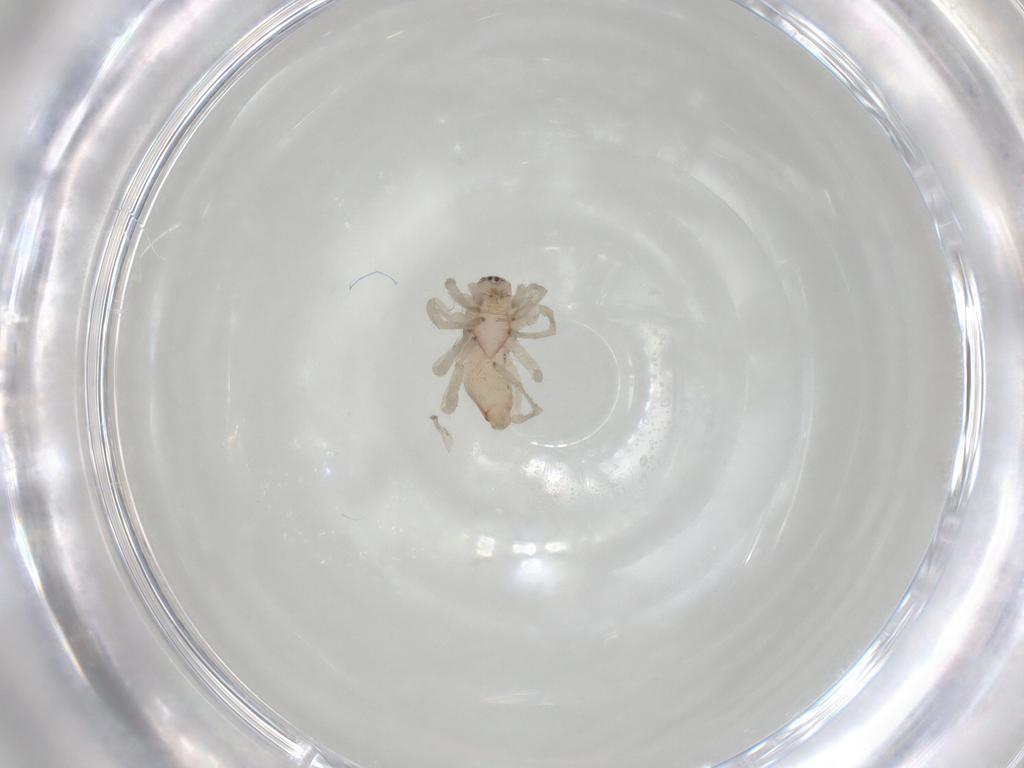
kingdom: Animalia
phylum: Arthropoda
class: Arachnida
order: Araneae
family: Clubionidae
